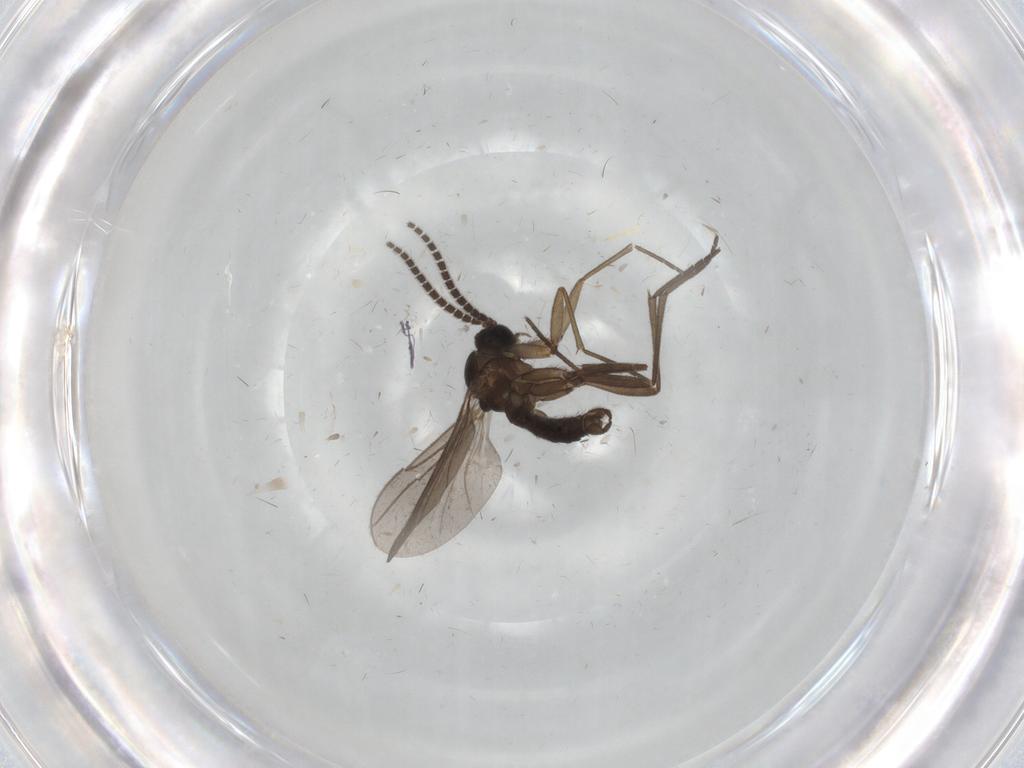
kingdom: Animalia
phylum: Arthropoda
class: Insecta
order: Diptera
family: Sciaridae
